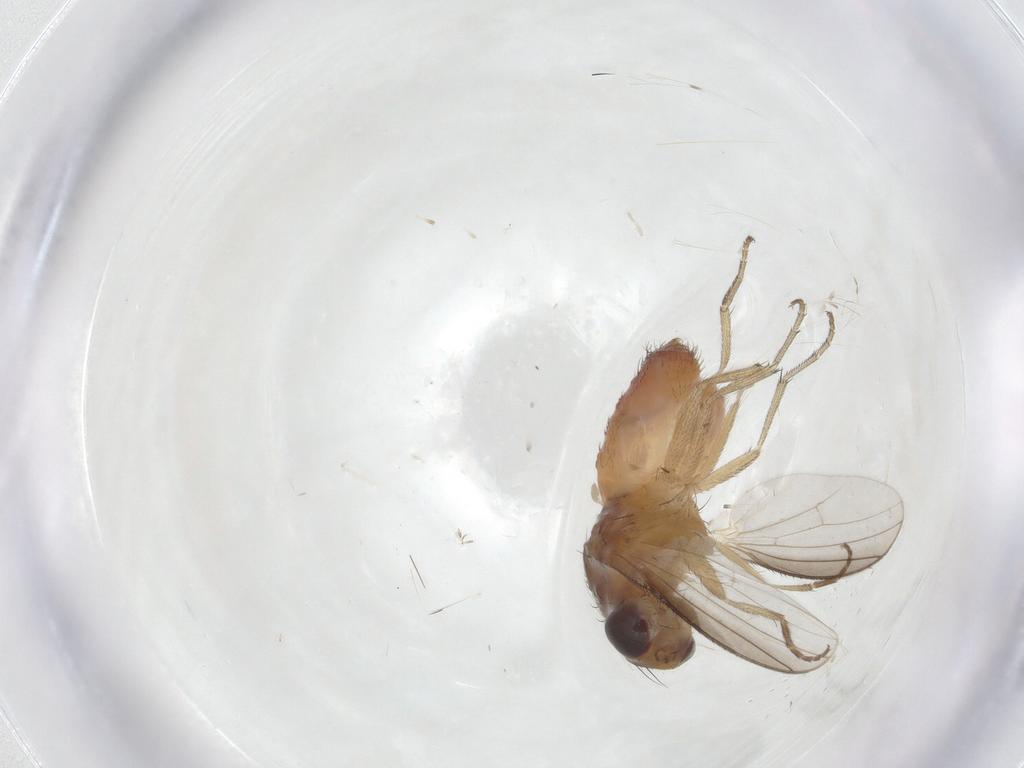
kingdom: Animalia
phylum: Arthropoda
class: Insecta
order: Diptera
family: Heleomyzidae
